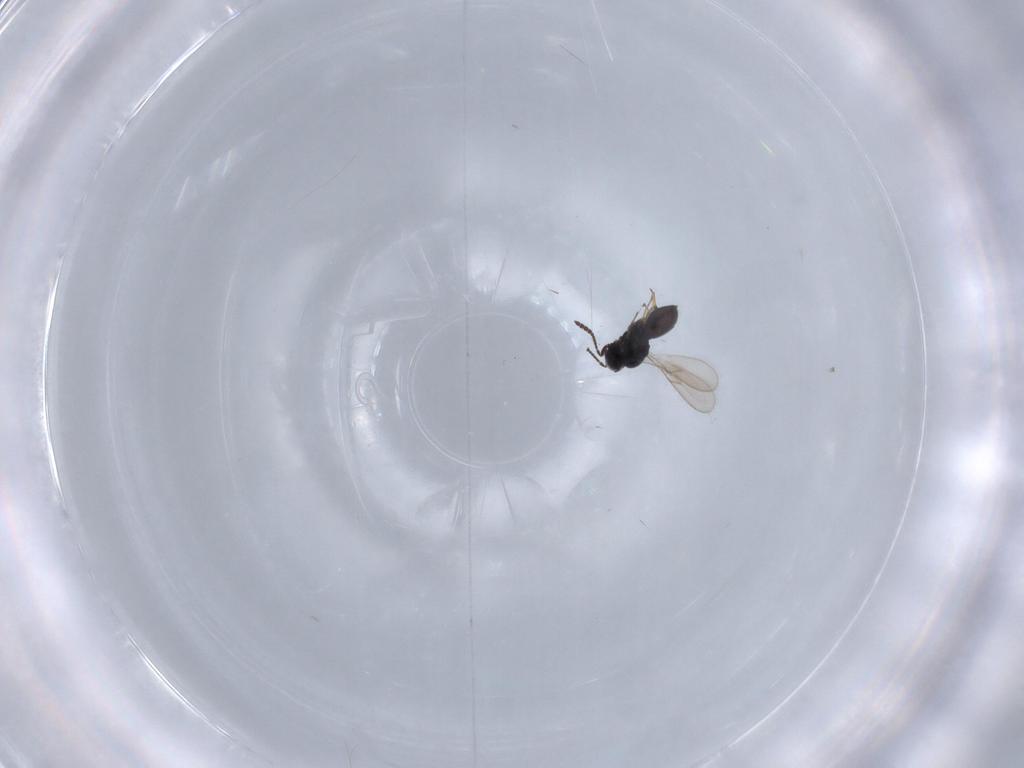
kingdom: Animalia
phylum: Arthropoda
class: Insecta
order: Hymenoptera
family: Scelionidae
